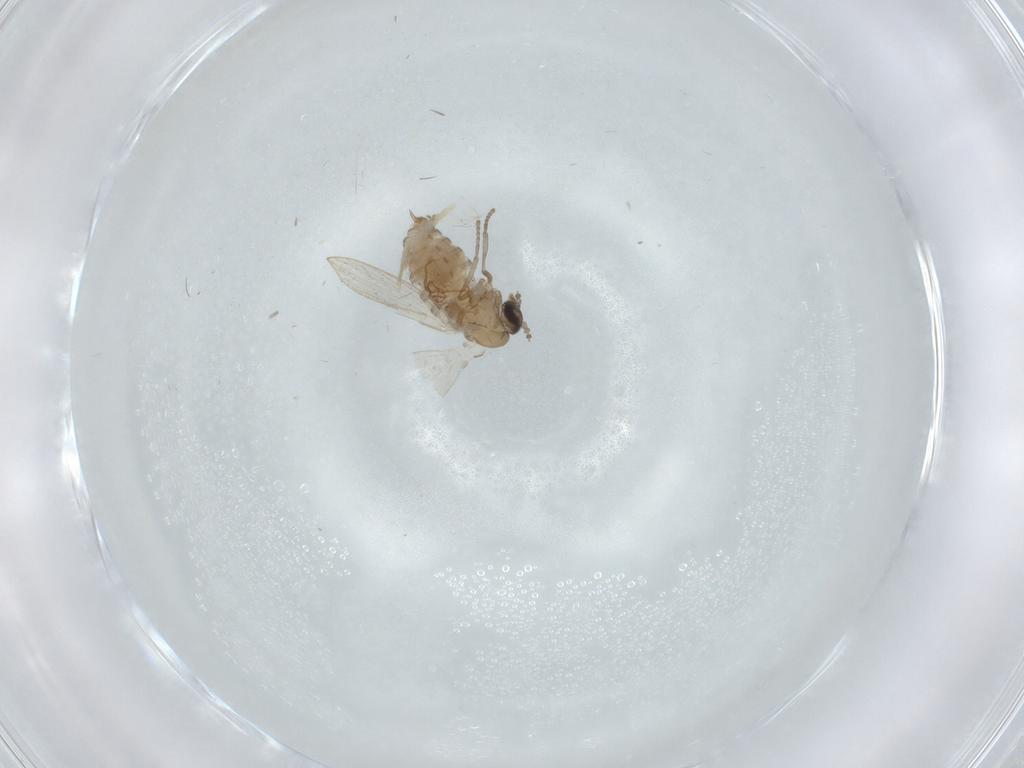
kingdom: Animalia
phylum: Arthropoda
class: Insecta
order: Diptera
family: Psychodidae
